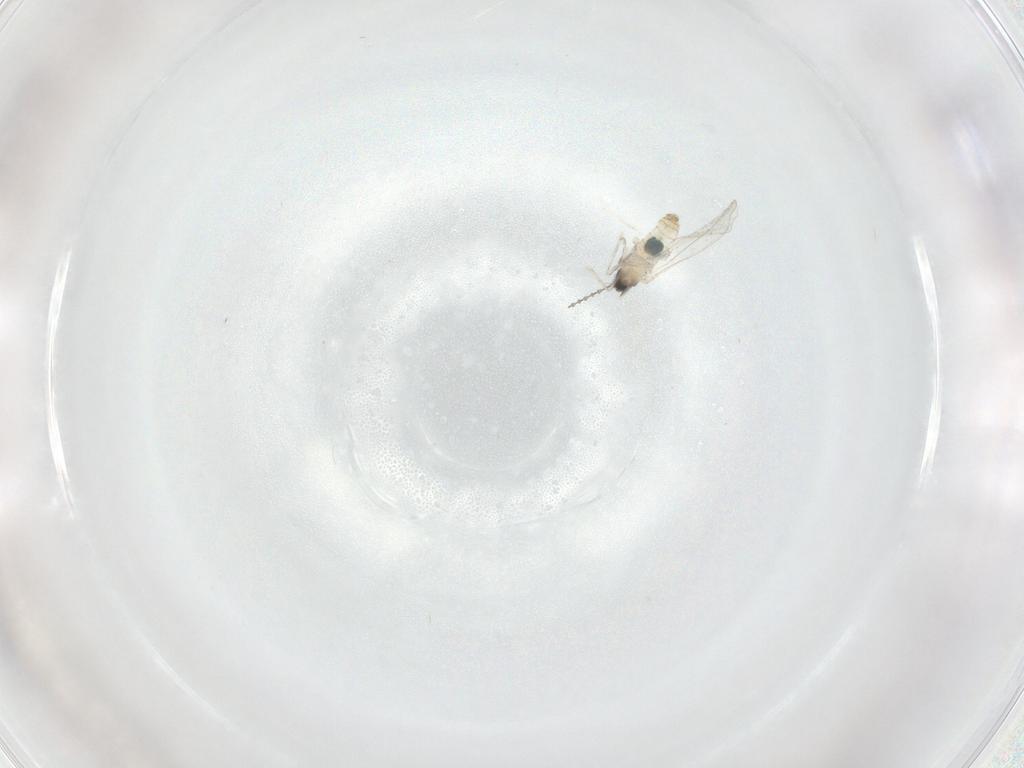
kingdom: Animalia
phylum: Arthropoda
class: Insecta
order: Diptera
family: Cecidomyiidae
